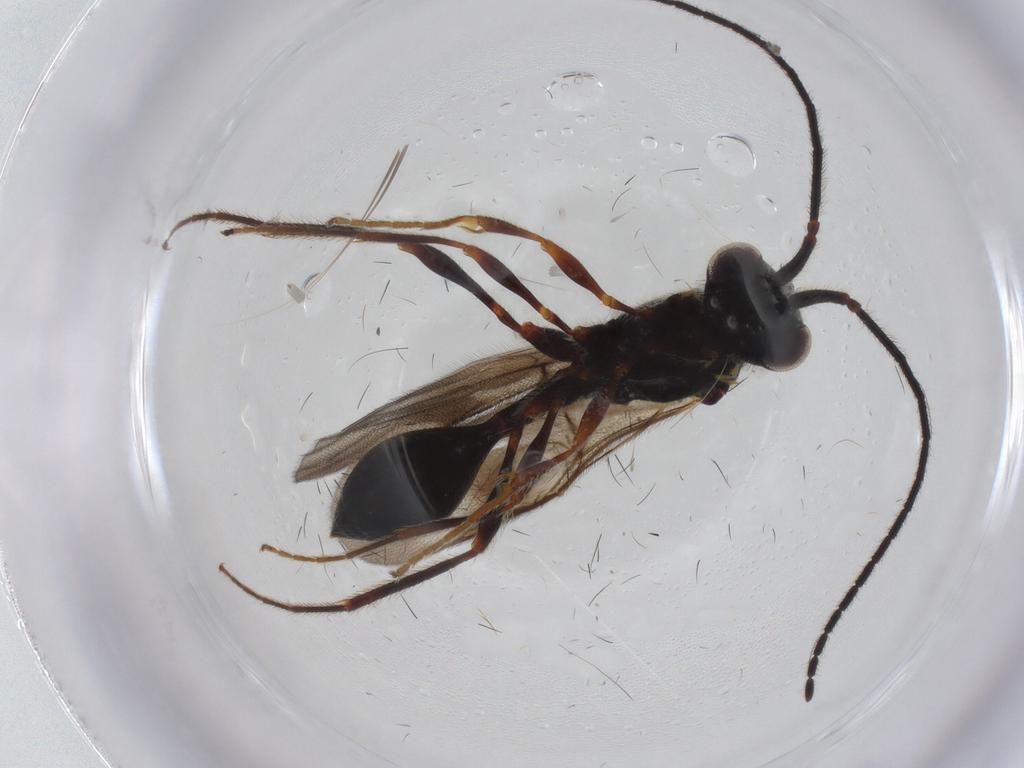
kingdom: Animalia
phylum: Arthropoda
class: Insecta
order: Hymenoptera
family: Diapriidae
